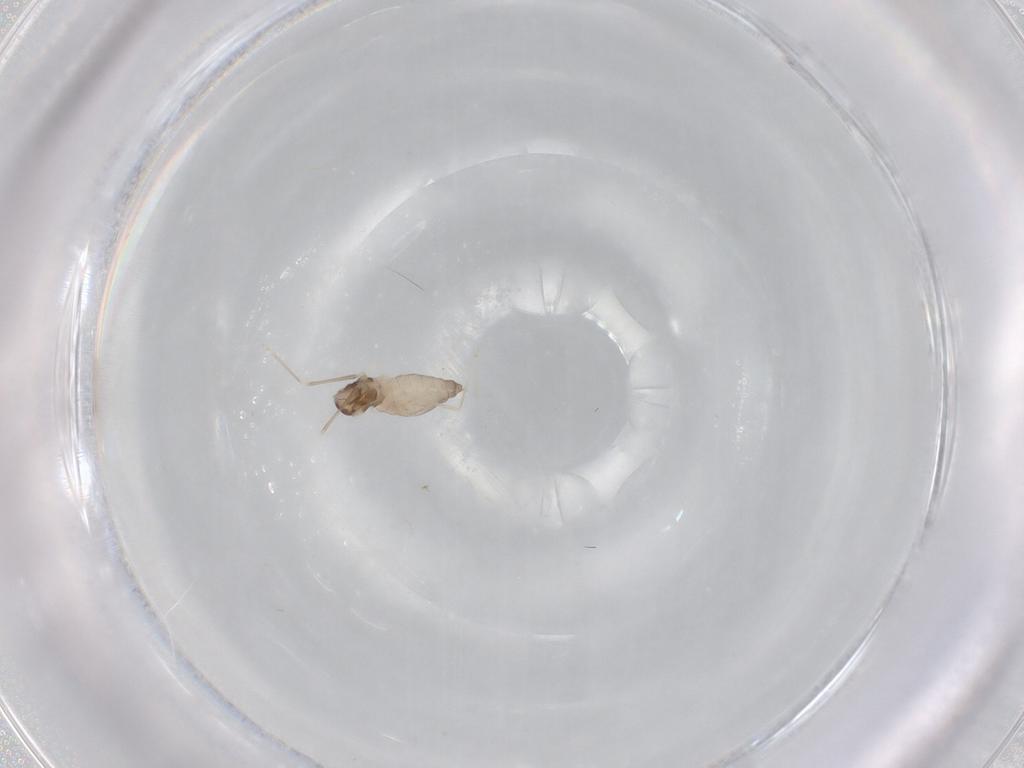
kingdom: Animalia
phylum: Arthropoda
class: Insecta
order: Diptera
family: Cecidomyiidae
